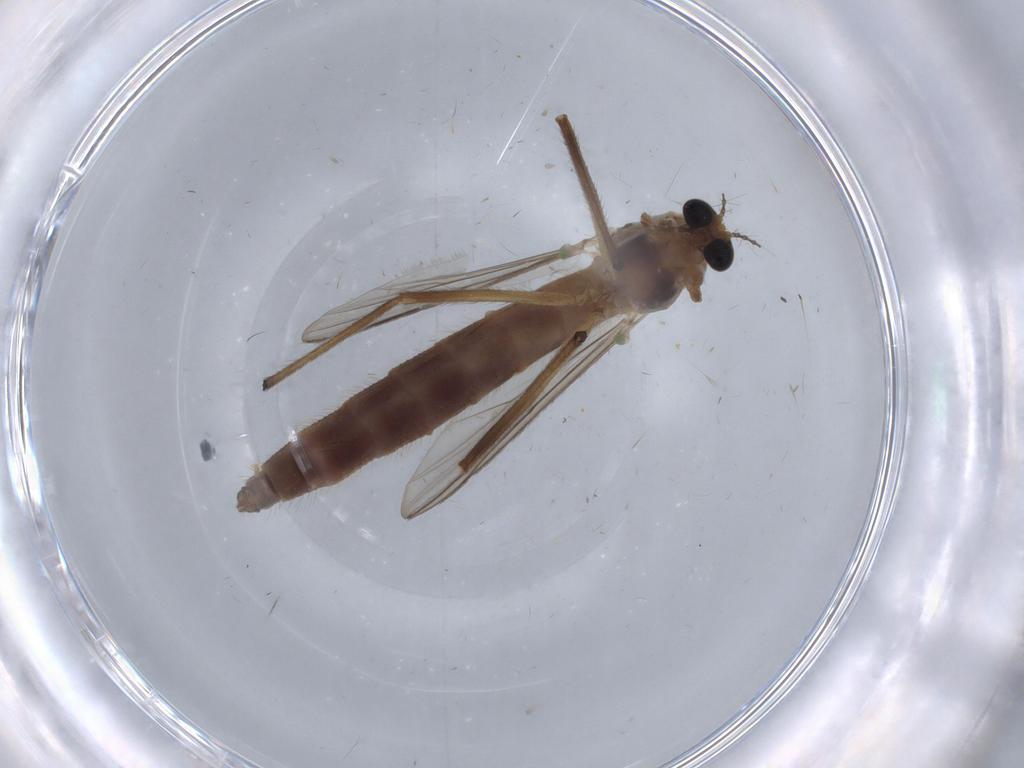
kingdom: Animalia
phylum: Arthropoda
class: Insecta
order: Diptera
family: Chironomidae
